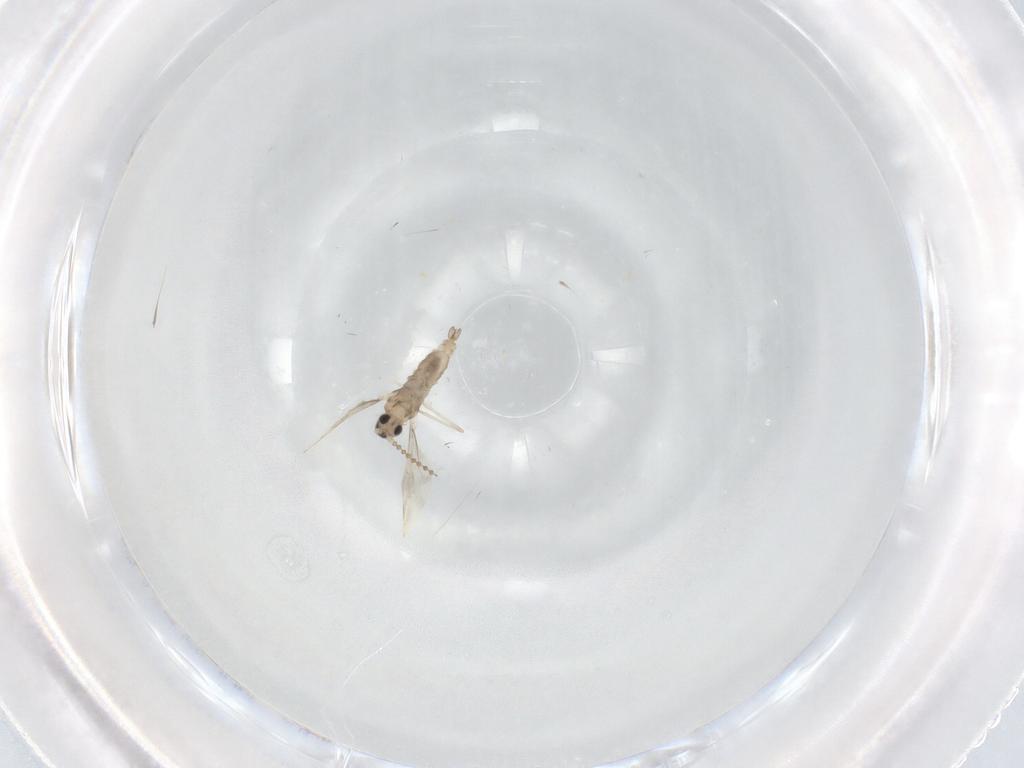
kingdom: Animalia
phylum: Arthropoda
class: Insecta
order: Diptera
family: Cecidomyiidae
